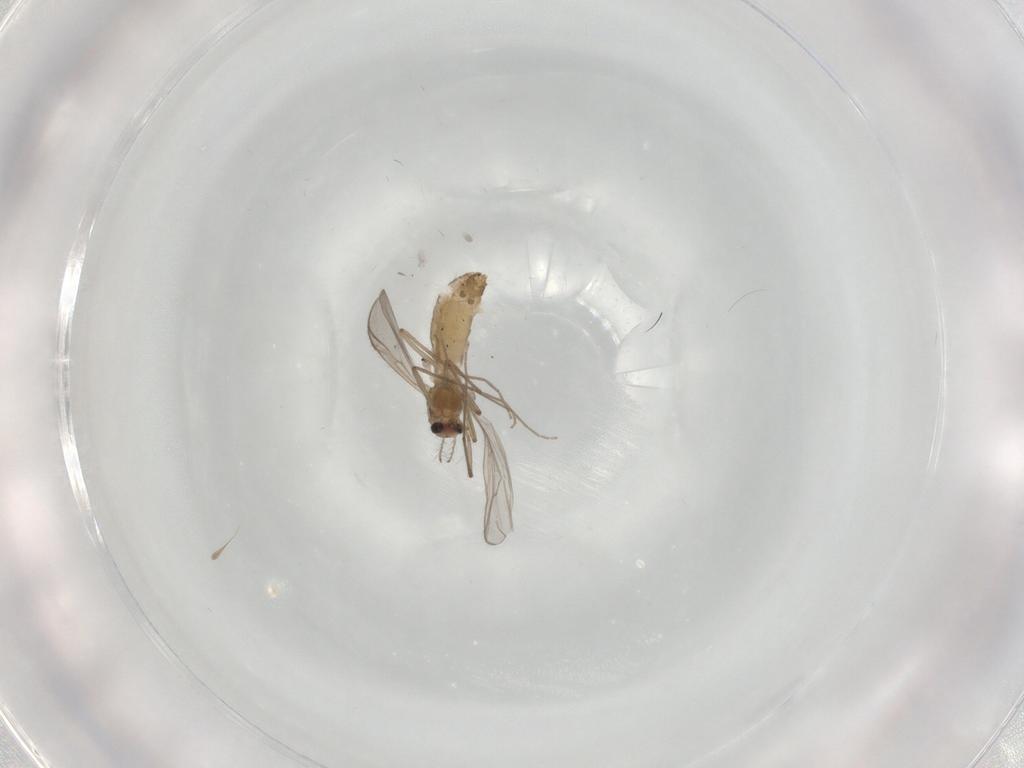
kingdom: Animalia
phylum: Arthropoda
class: Insecta
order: Diptera
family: Chironomidae
